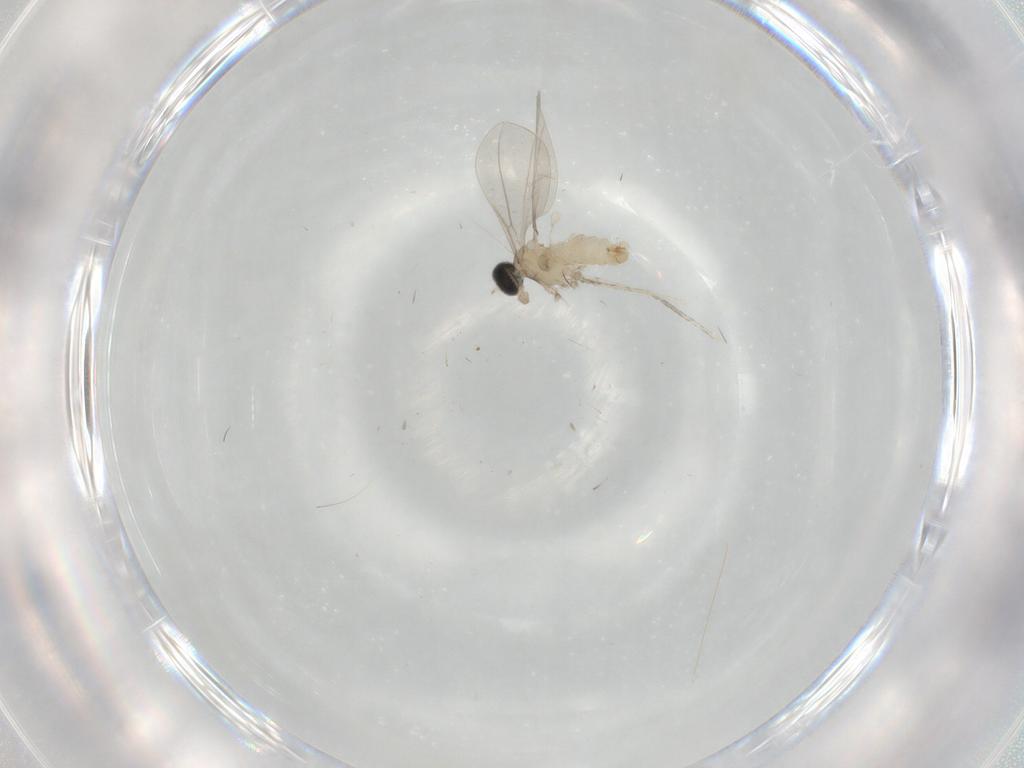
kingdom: Animalia
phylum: Arthropoda
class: Insecta
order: Diptera
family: Cecidomyiidae
